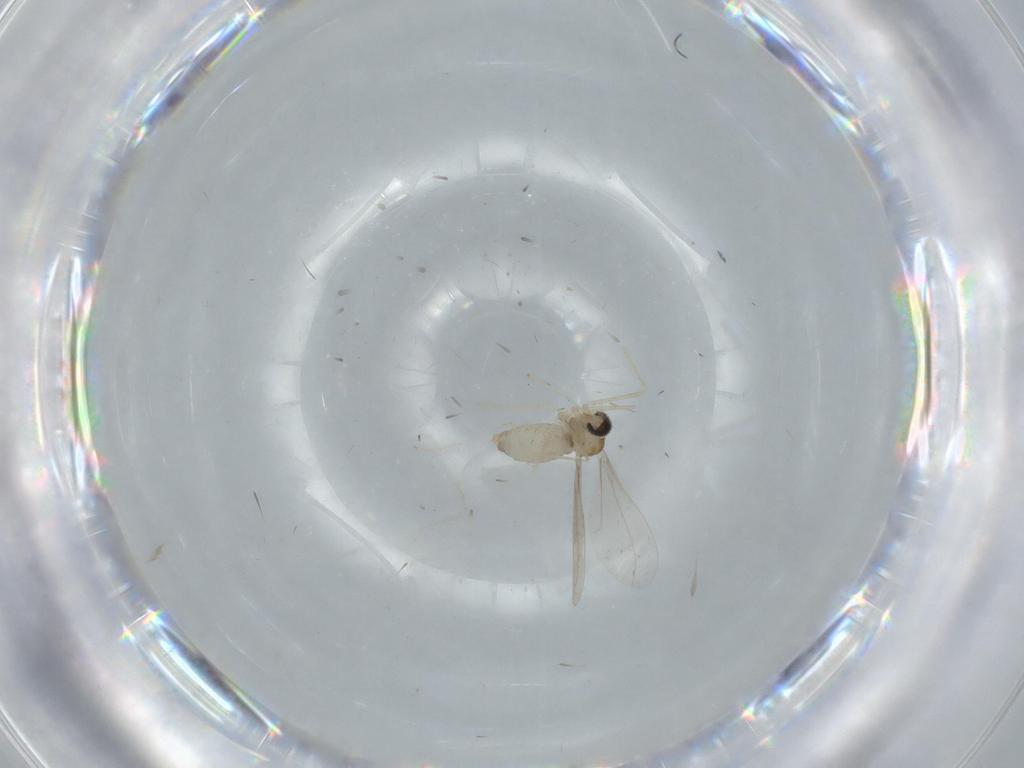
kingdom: Animalia
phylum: Arthropoda
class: Insecta
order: Diptera
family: Cecidomyiidae
